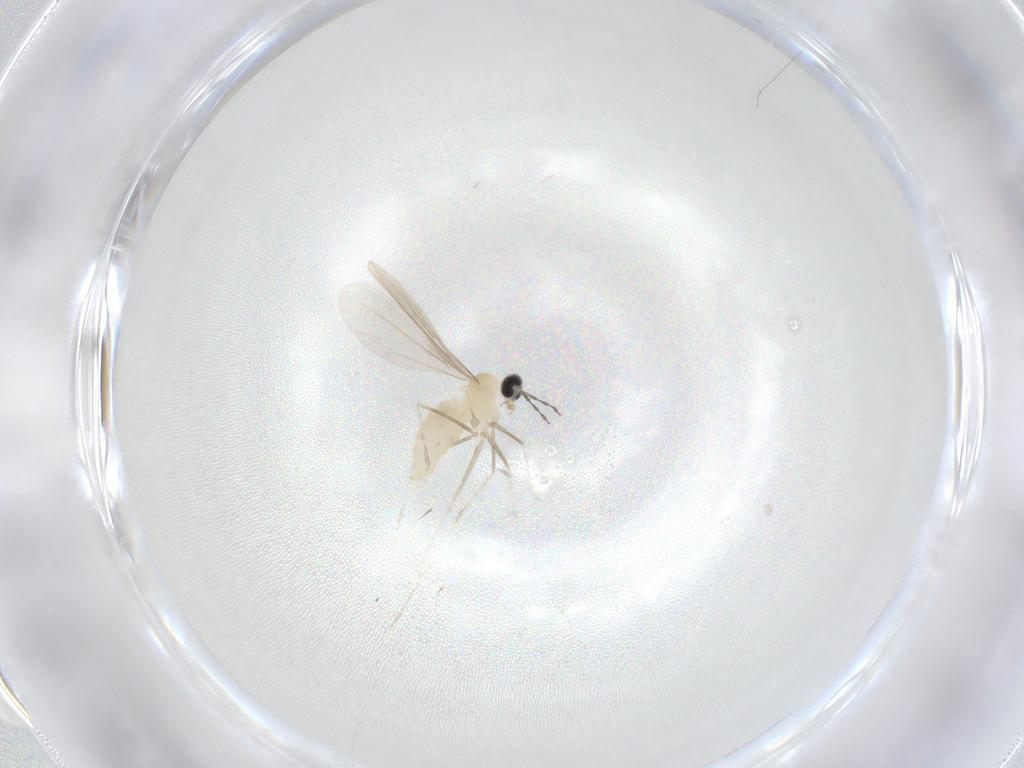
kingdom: Animalia
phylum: Arthropoda
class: Insecta
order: Diptera
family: Cecidomyiidae
